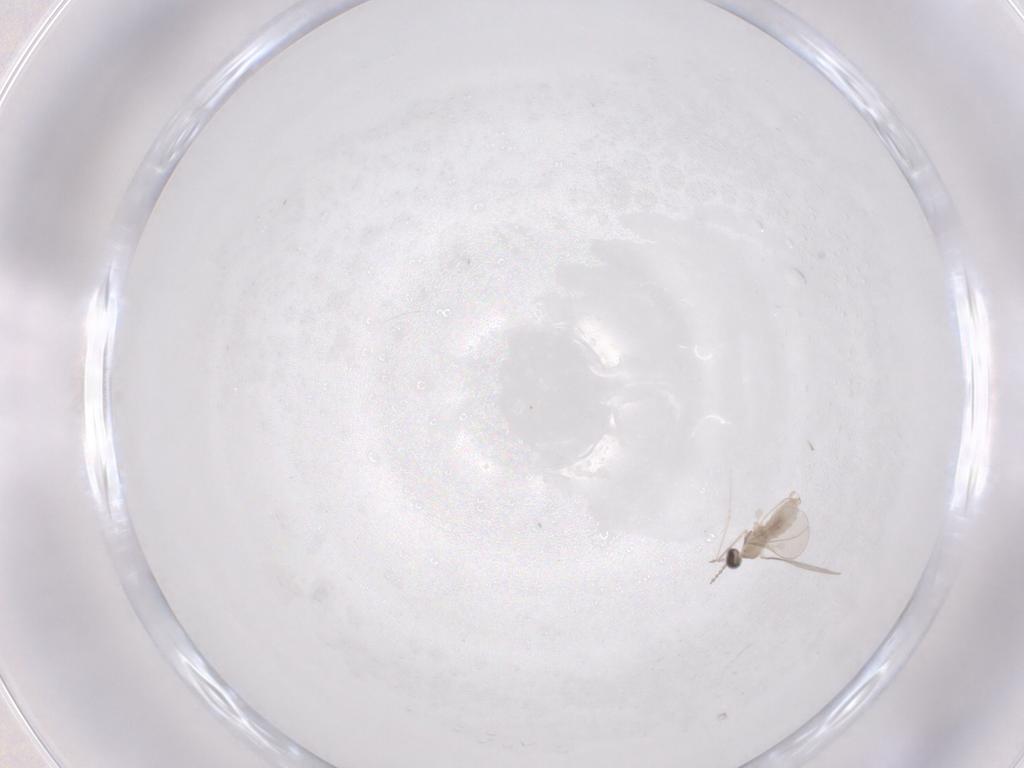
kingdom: Animalia
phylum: Arthropoda
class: Insecta
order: Diptera
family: Cecidomyiidae
